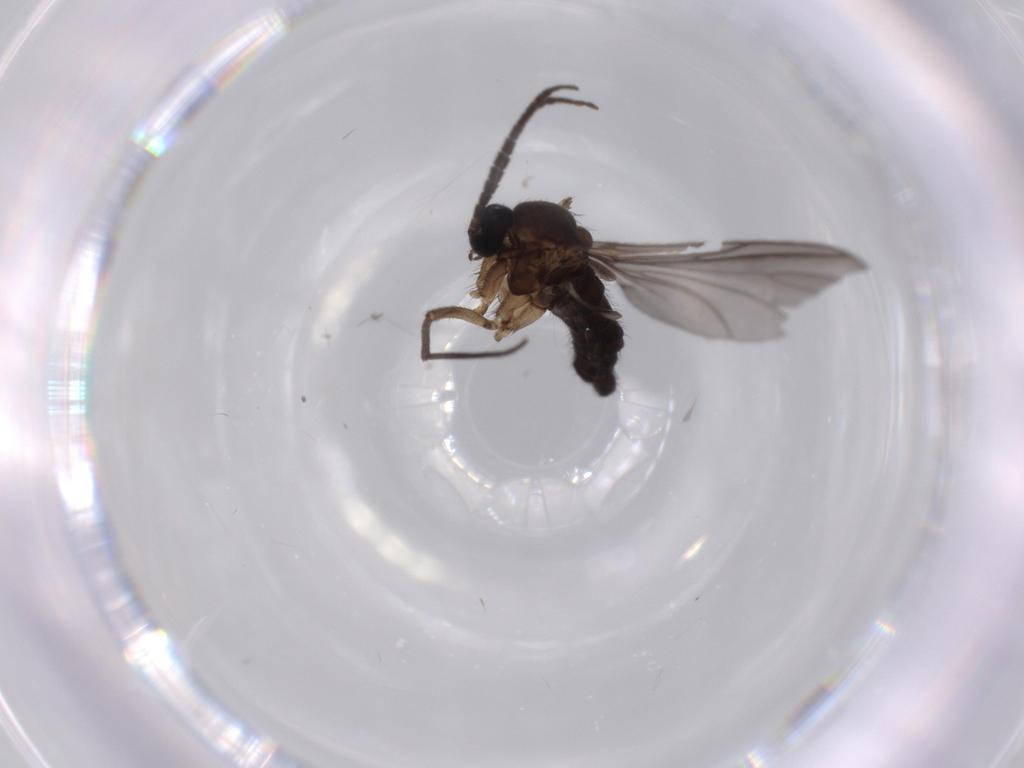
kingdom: Animalia
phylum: Arthropoda
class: Insecta
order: Diptera
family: Sciaridae
